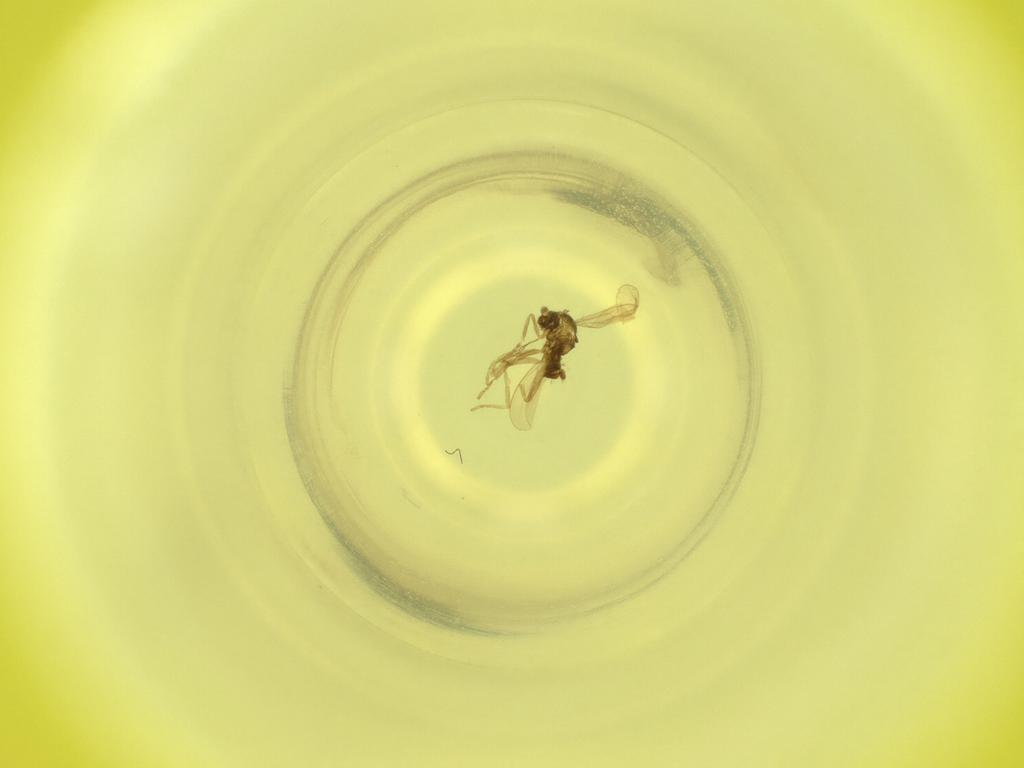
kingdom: Animalia
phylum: Arthropoda
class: Insecta
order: Diptera
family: Cecidomyiidae
